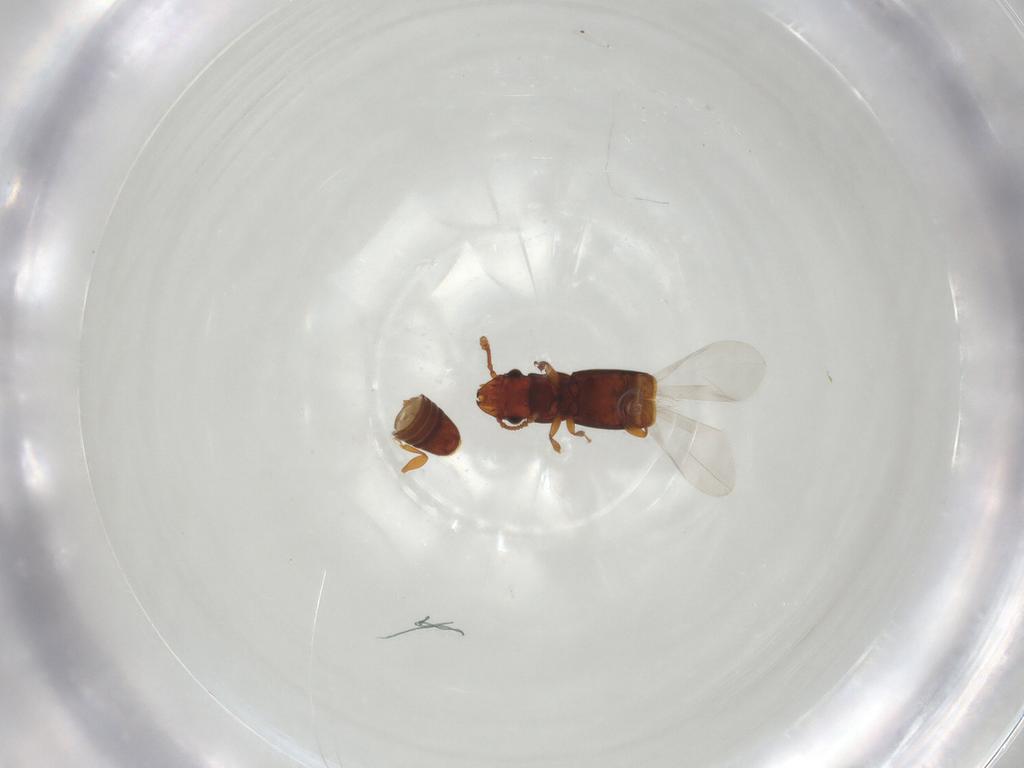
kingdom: Animalia
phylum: Arthropoda
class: Insecta
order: Coleoptera
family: Smicripidae
